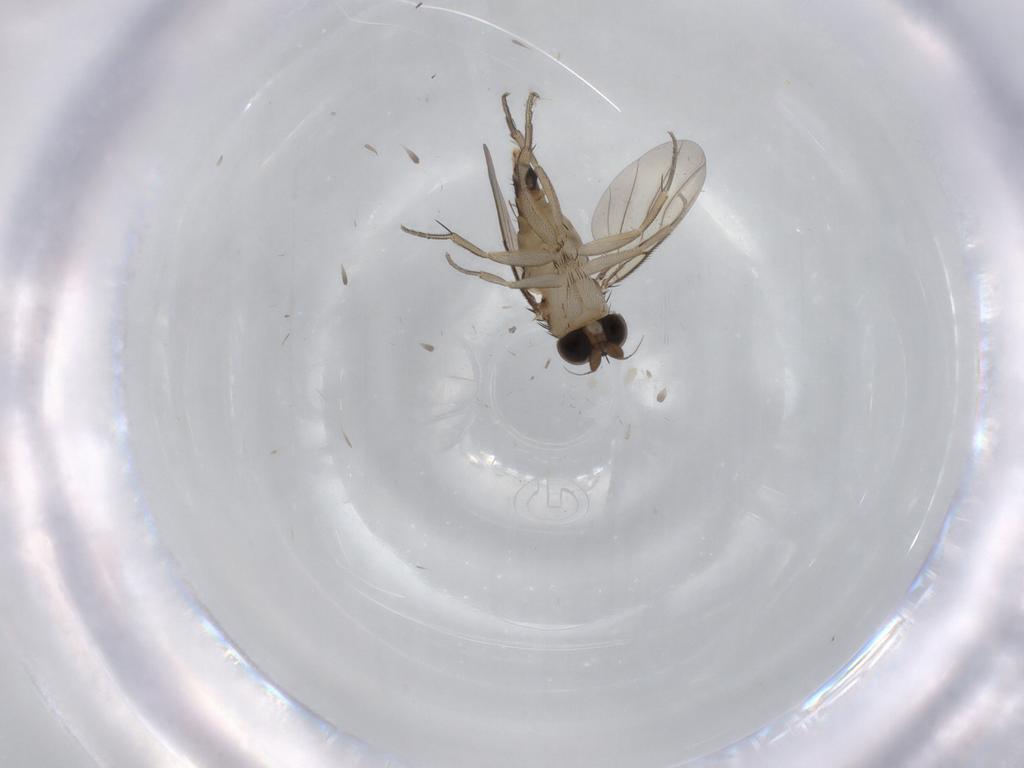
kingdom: Animalia
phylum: Arthropoda
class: Insecta
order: Diptera
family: Phoridae
